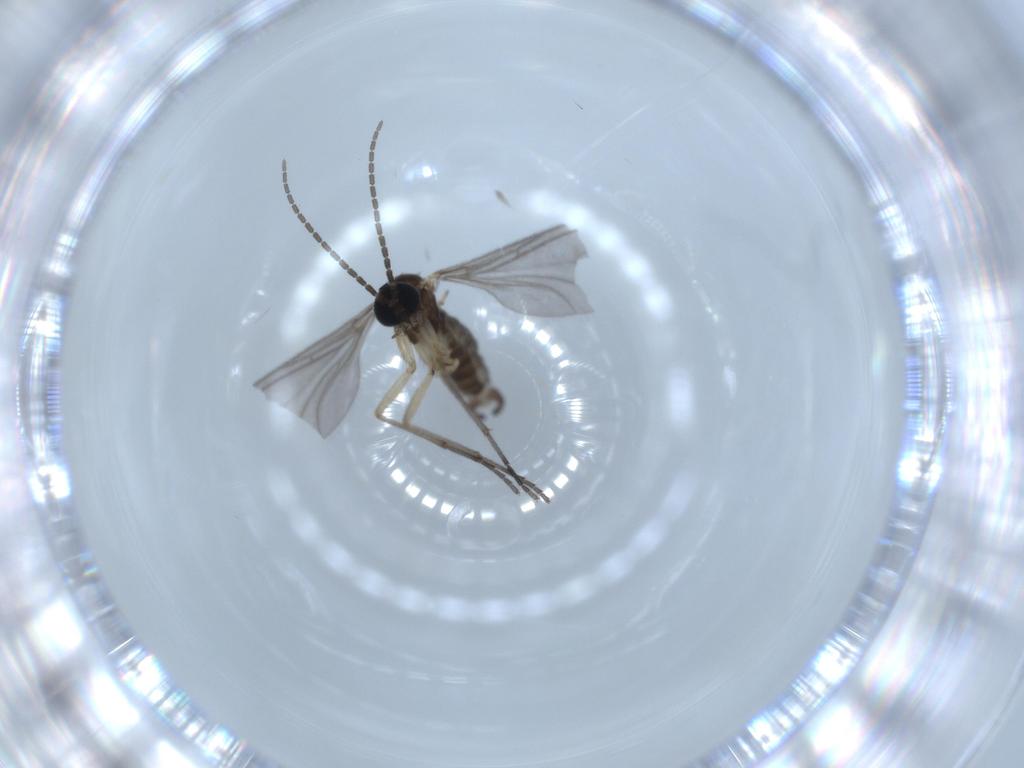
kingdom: Animalia
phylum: Arthropoda
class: Insecta
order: Diptera
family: Sciaridae
